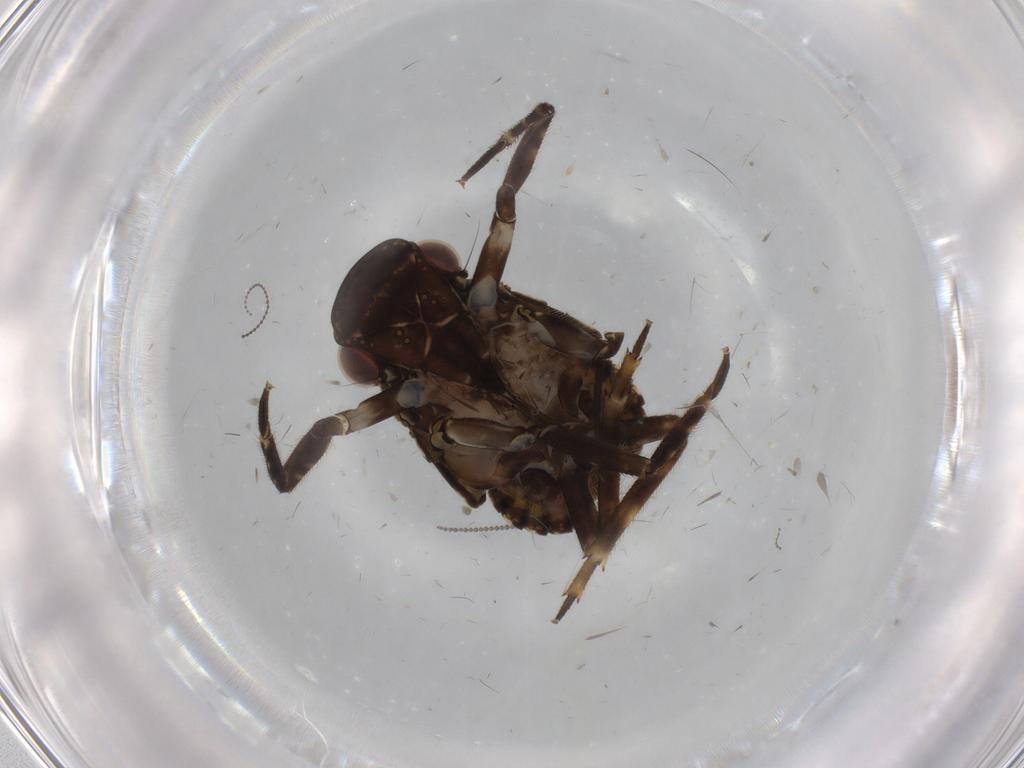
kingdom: Animalia
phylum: Arthropoda
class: Insecta
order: Hemiptera
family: Fulgoridae
